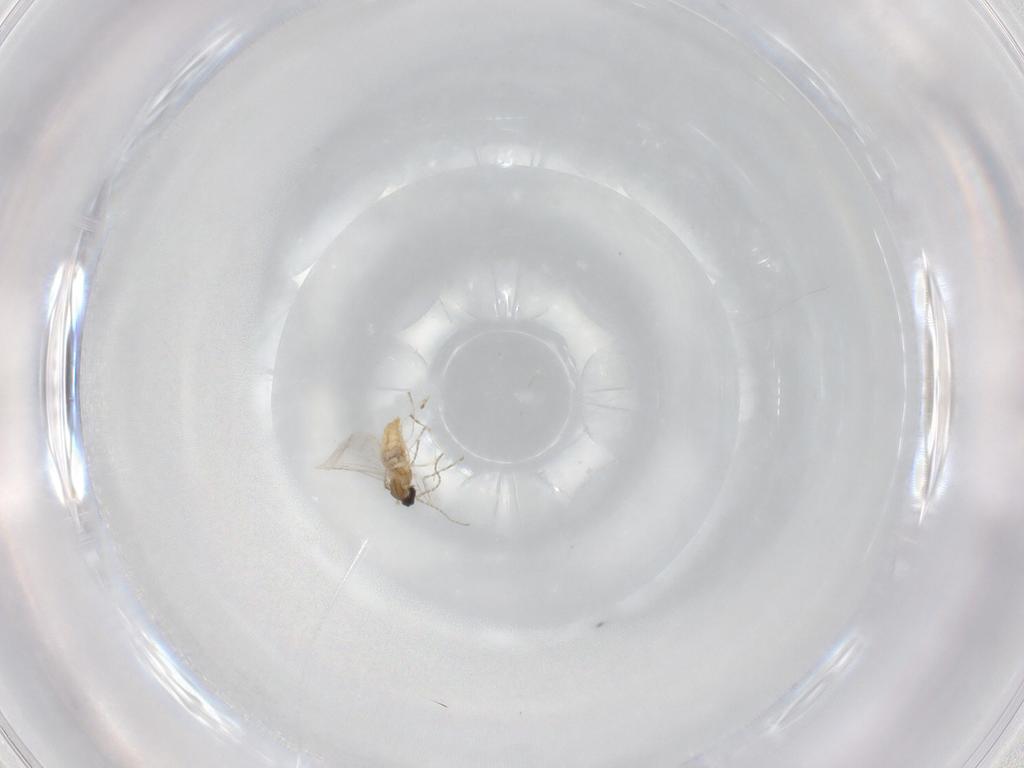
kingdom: Animalia
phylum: Arthropoda
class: Insecta
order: Diptera
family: Cecidomyiidae
